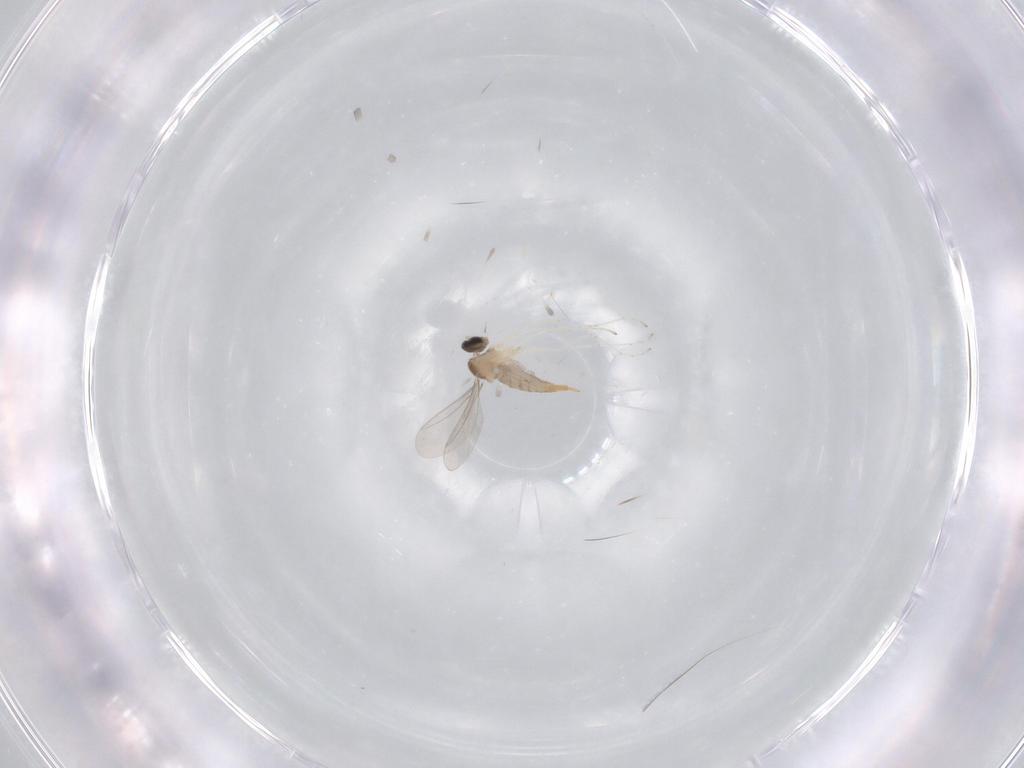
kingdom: Animalia
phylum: Arthropoda
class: Insecta
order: Diptera
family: Cecidomyiidae
